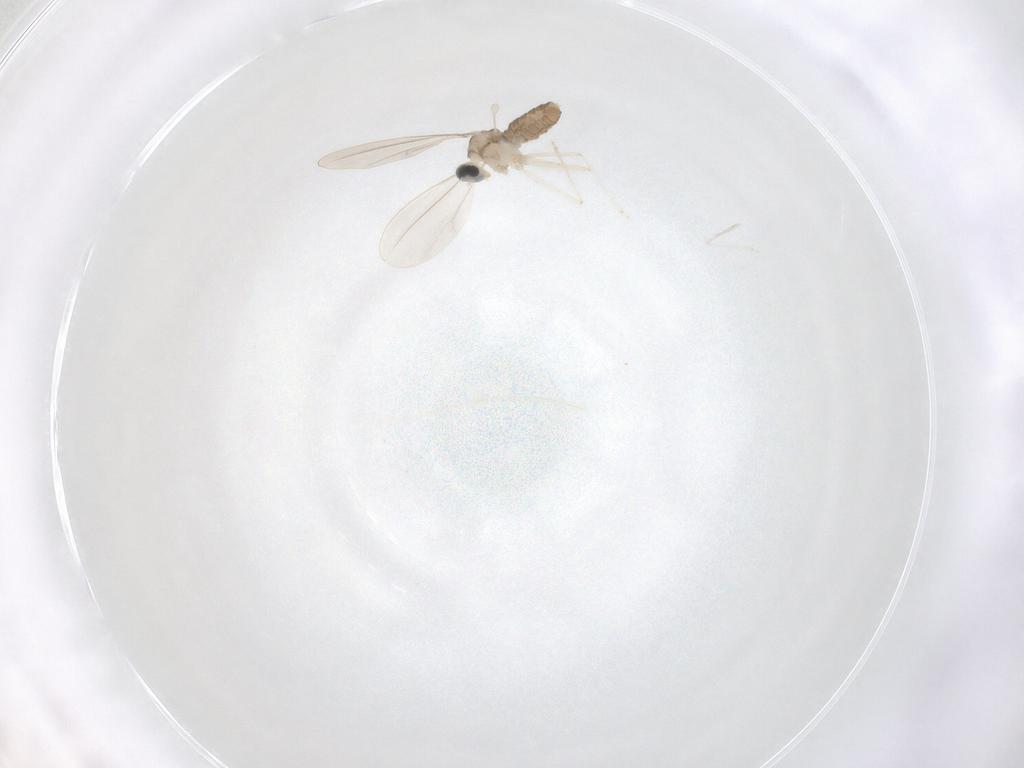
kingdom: Animalia
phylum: Arthropoda
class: Insecta
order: Diptera
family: Cecidomyiidae
